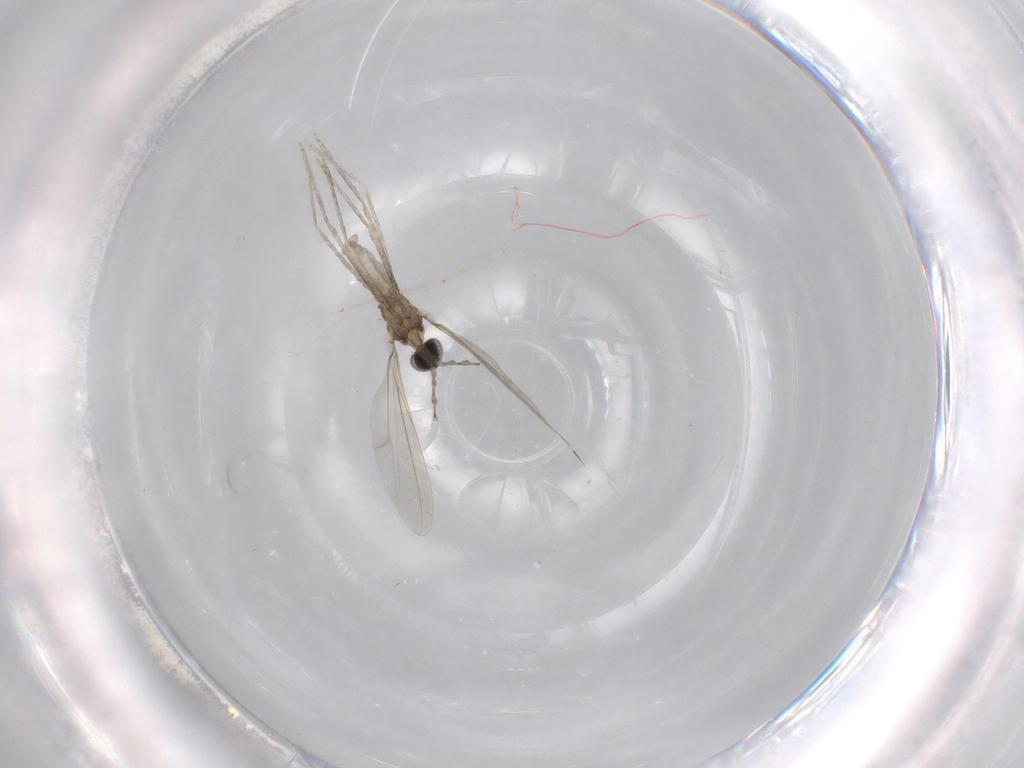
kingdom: Animalia
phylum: Arthropoda
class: Insecta
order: Diptera
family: Cecidomyiidae
